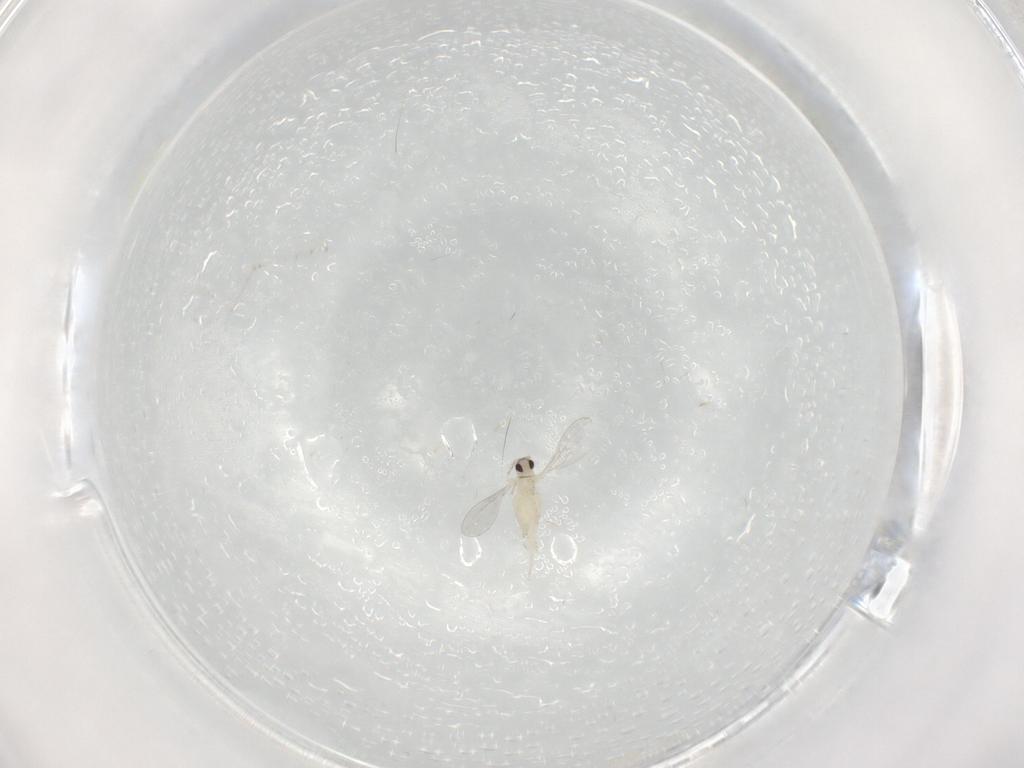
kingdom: Animalia
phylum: Arthropoda
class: Insecta
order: Diptera
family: Cecidomyiidae
